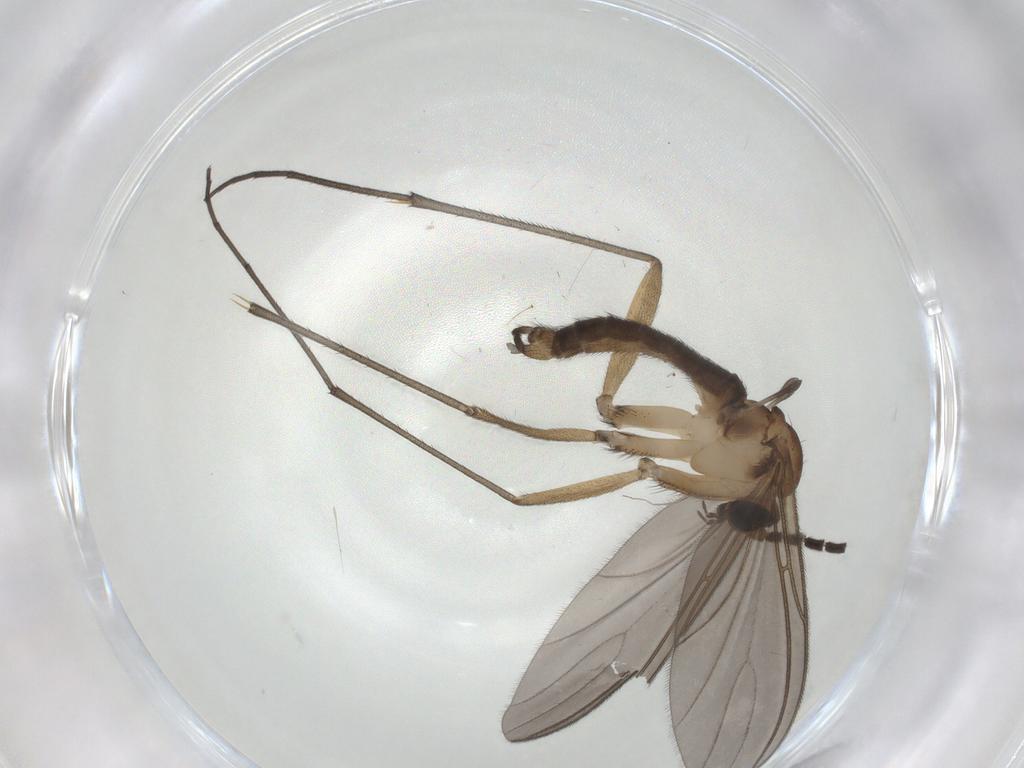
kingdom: Animalia
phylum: Arthropoda
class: Insecta
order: Diptera
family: Sciaridae
